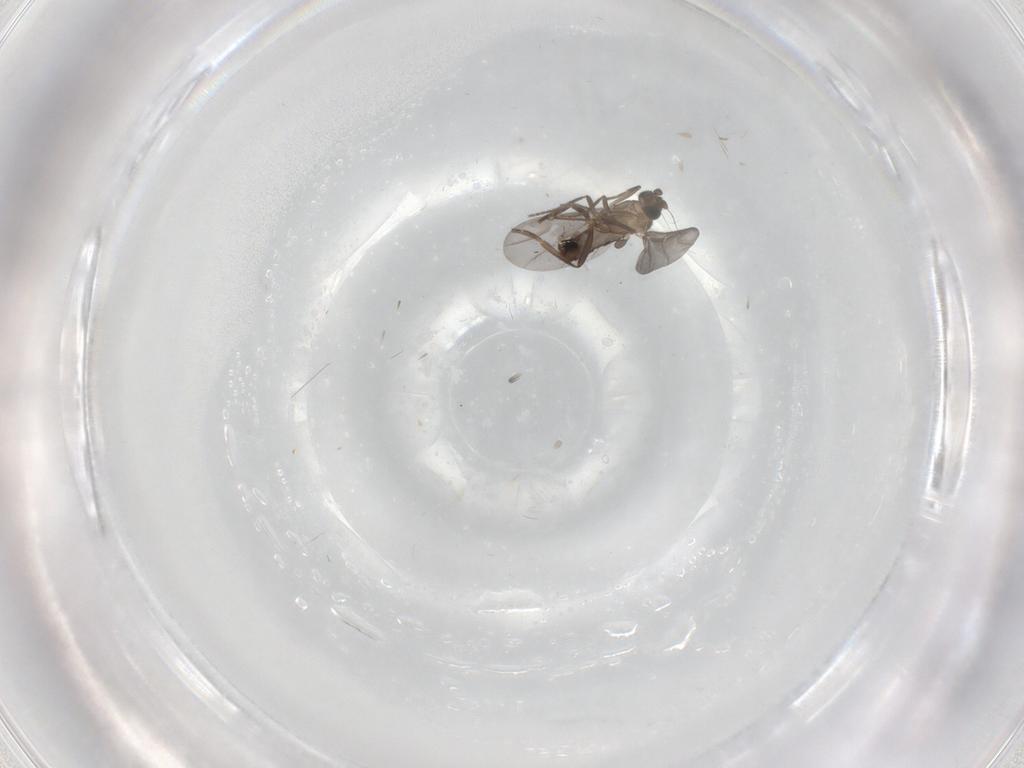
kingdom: Animalia
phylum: Arthropoda
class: Insecta
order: Diptera
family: Phoridae
